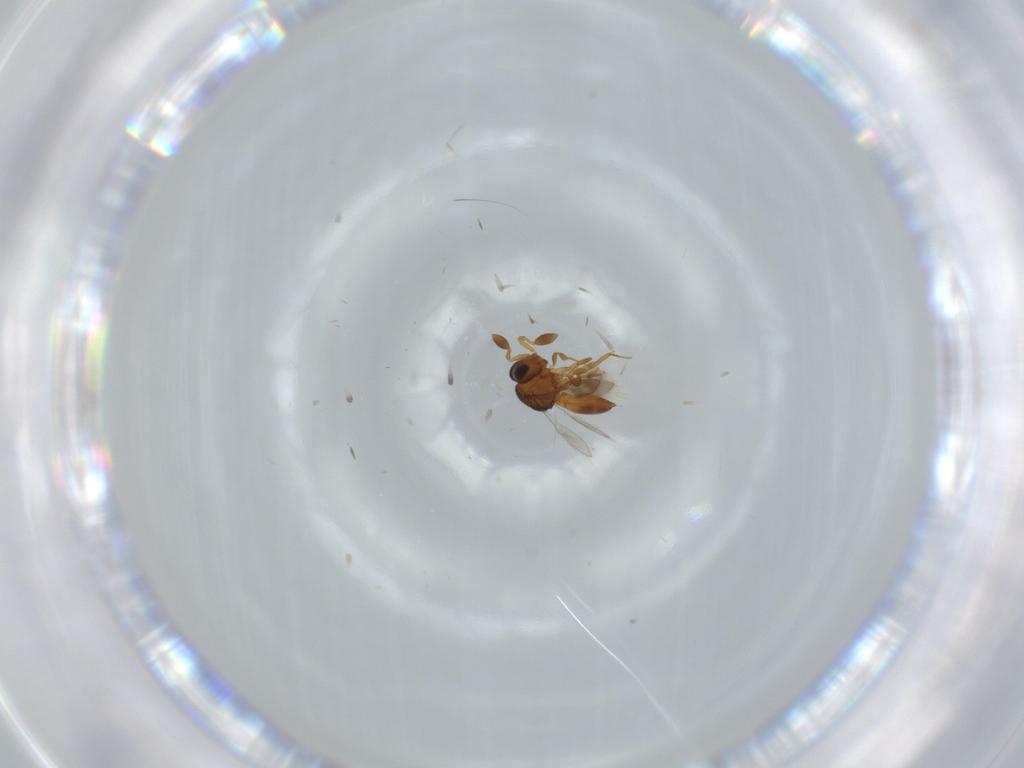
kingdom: Animalia
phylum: Arthropoda
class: Insecta
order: Hymenoptera
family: Scelionidae
